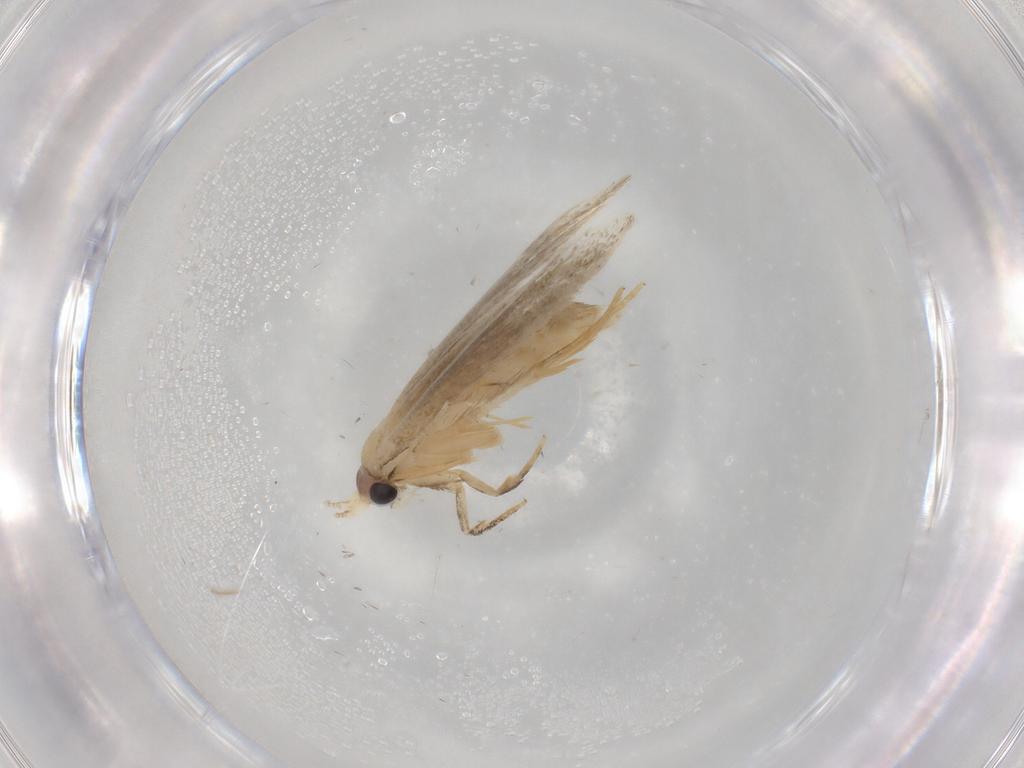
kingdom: Animalia
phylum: Arthropoda
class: Insecta
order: Lepidoptera
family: Nepticulidae
